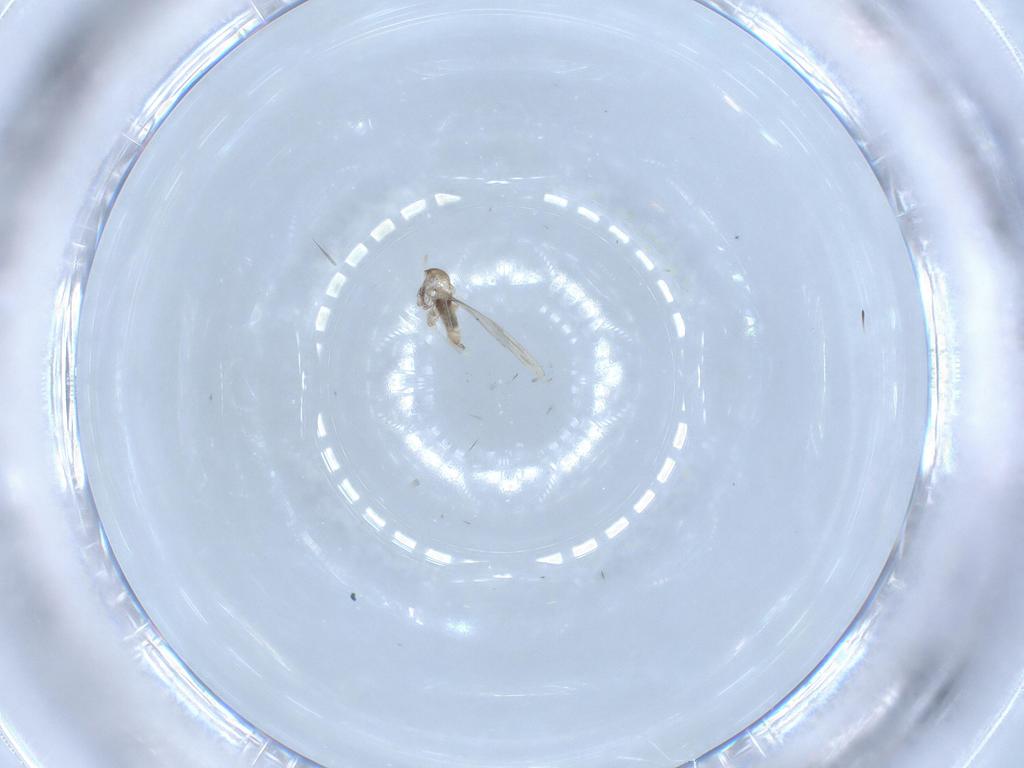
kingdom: Animalia
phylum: Arthropoda
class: Insecta
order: Diptera
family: Cecidomyiidae
